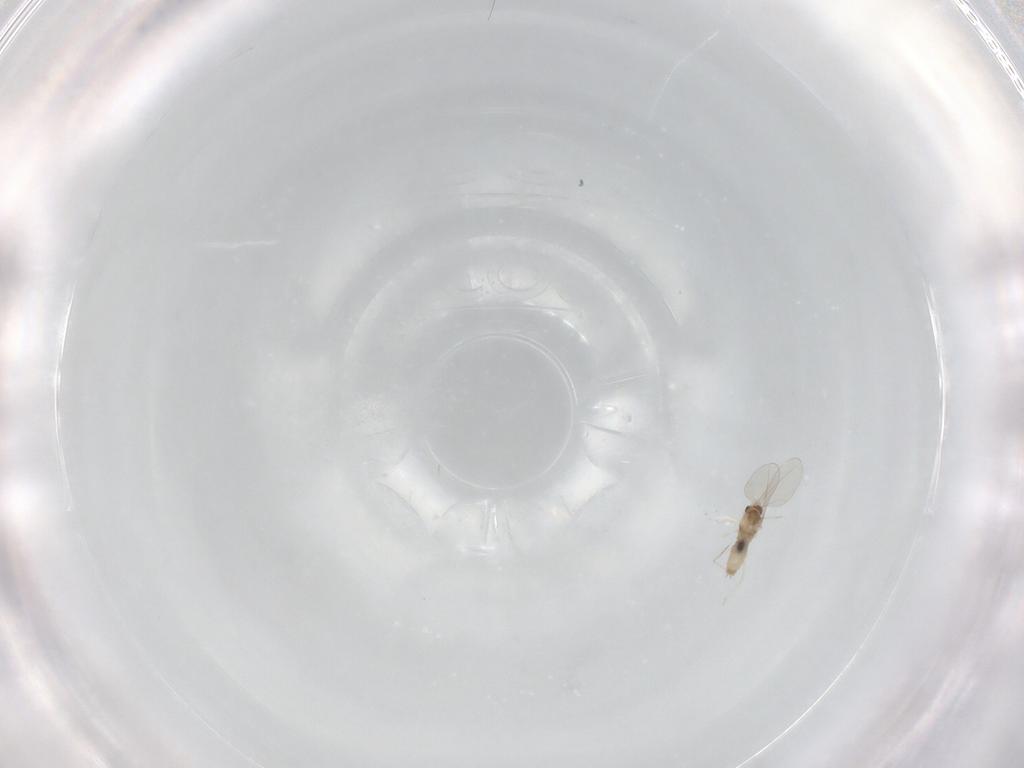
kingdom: Animalia
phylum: Arthropoda
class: Insecta
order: Diptera
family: Cecidomyiidae
